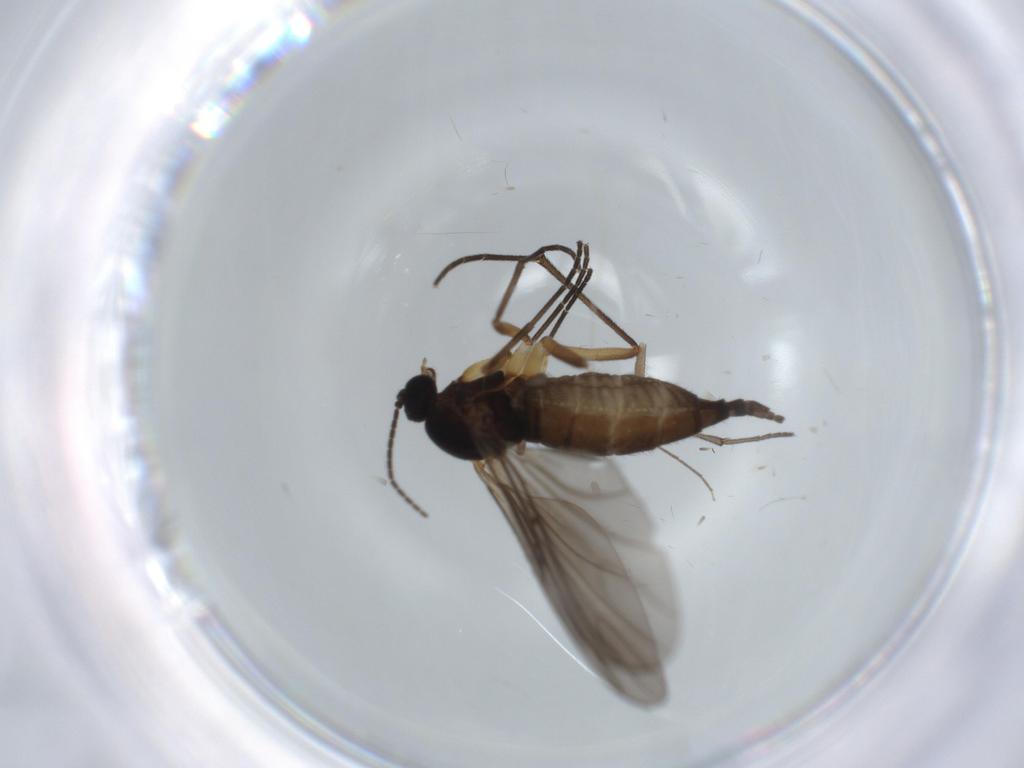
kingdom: Animalia
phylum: Arthropoda
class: Insecta
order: Diptera
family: Sciaridae
